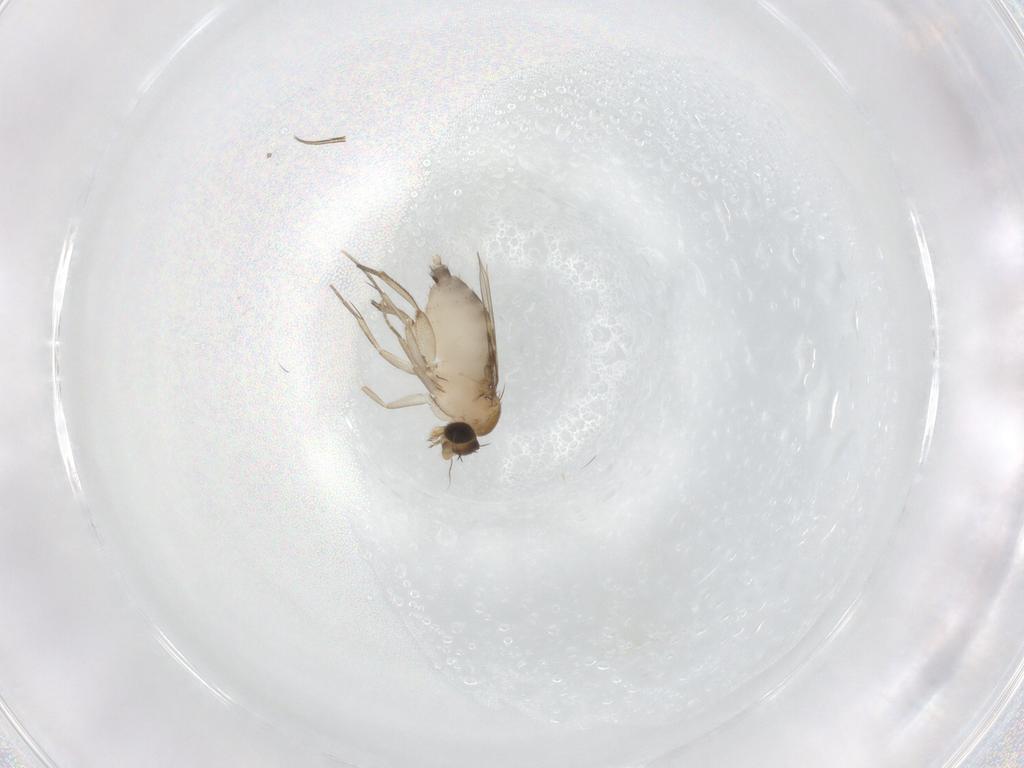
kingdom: Animalia
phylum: Arthropoda
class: Insecta
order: Diptera
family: Phoridae
